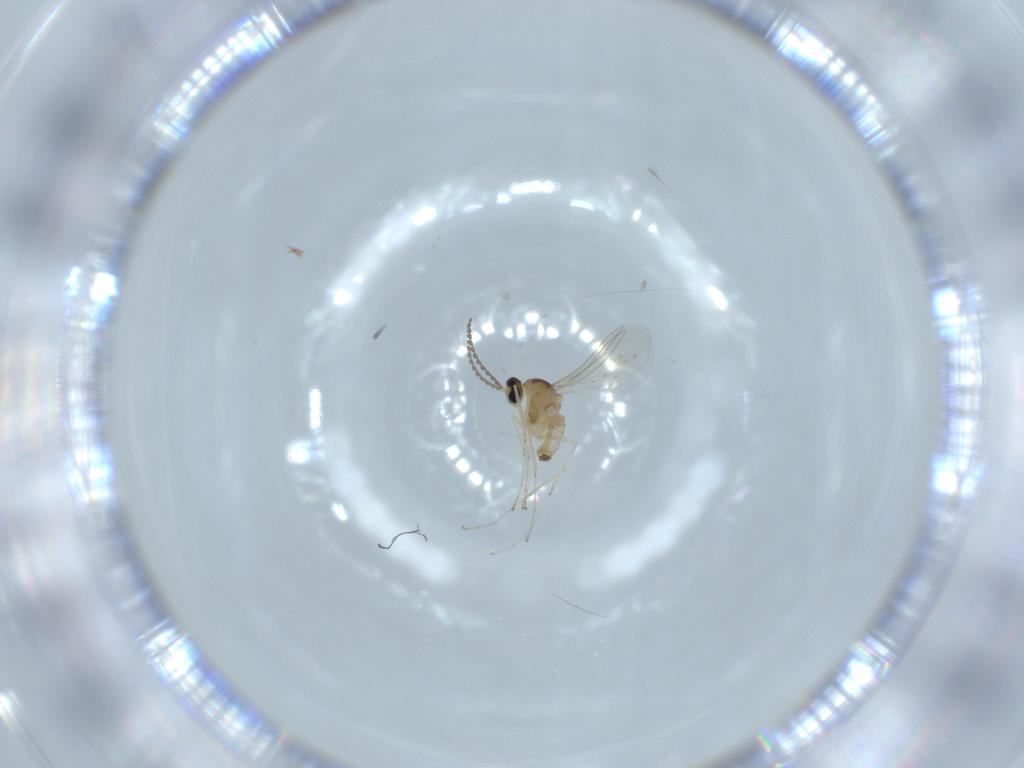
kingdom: Animalia
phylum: Arthropoda
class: Insecta
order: Diptera
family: Cecidomyiidae
